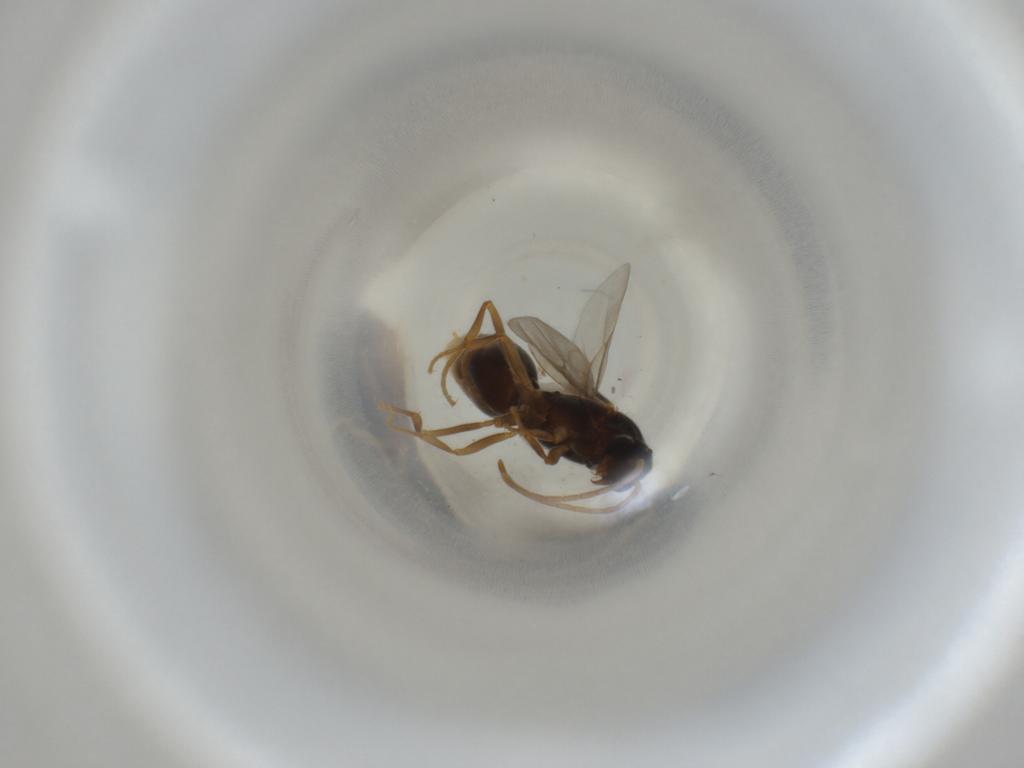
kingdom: Animalia
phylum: Arthropoda
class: Insecta
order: Hymenoptera
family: Formicidae
